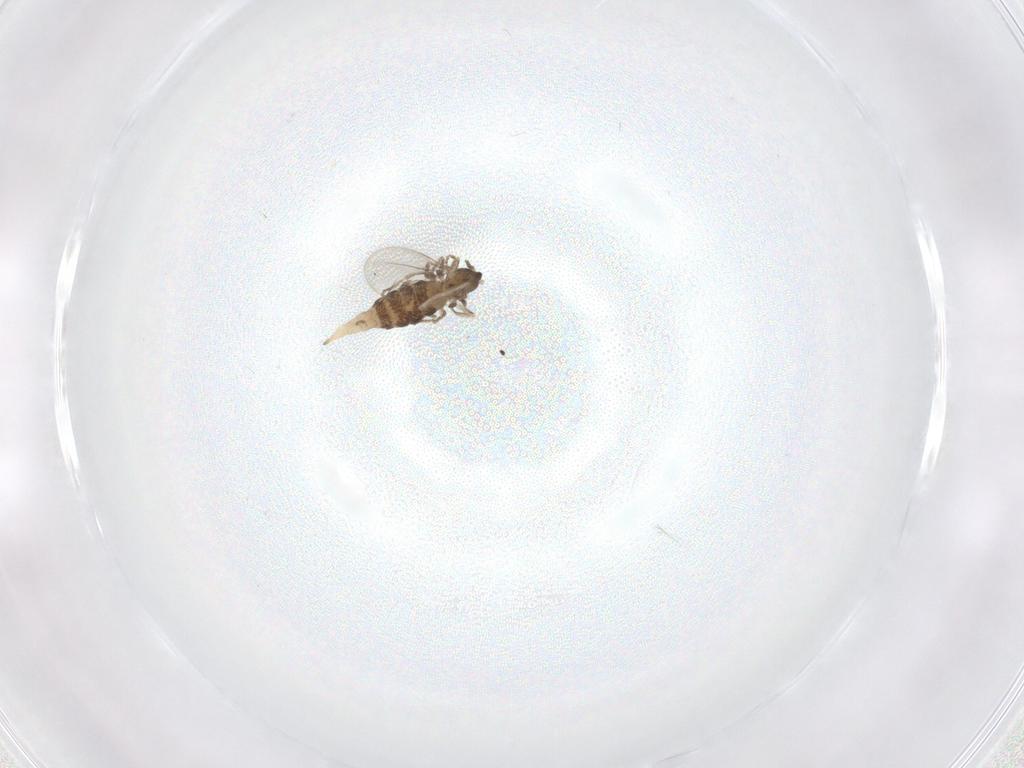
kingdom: Animalia
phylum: Arthropoda
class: Insecta
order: Diptera
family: Cecidomyiidae
